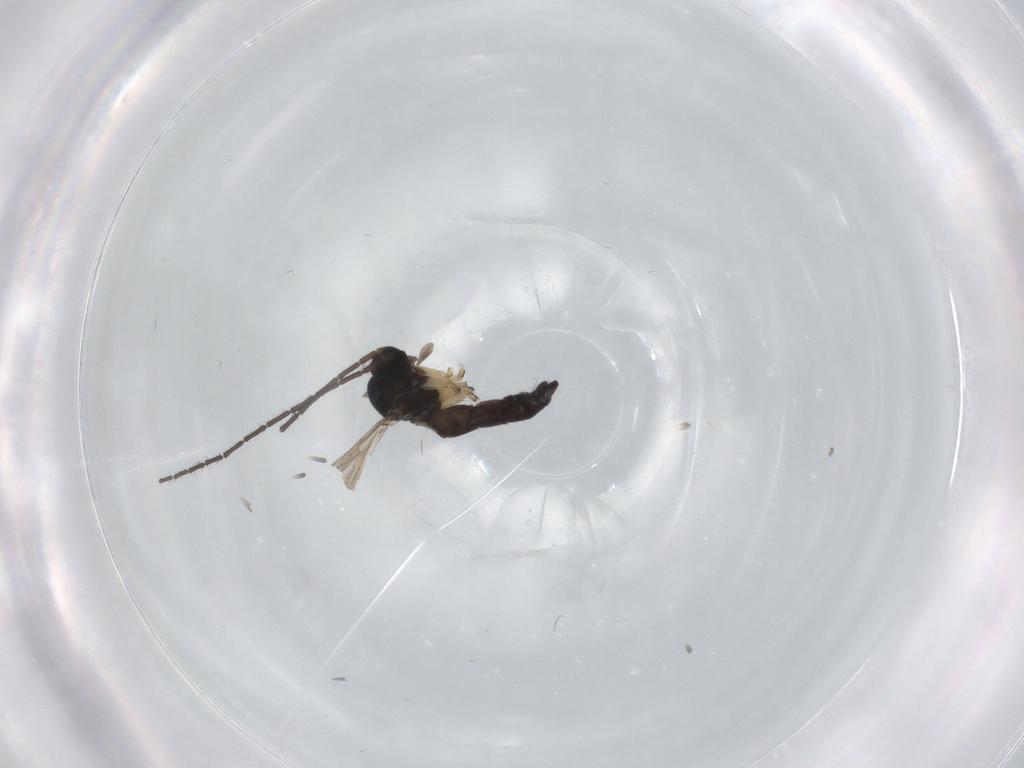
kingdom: Animalia
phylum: Arthropoda
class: Insecta
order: Diptera
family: Sciaridae
